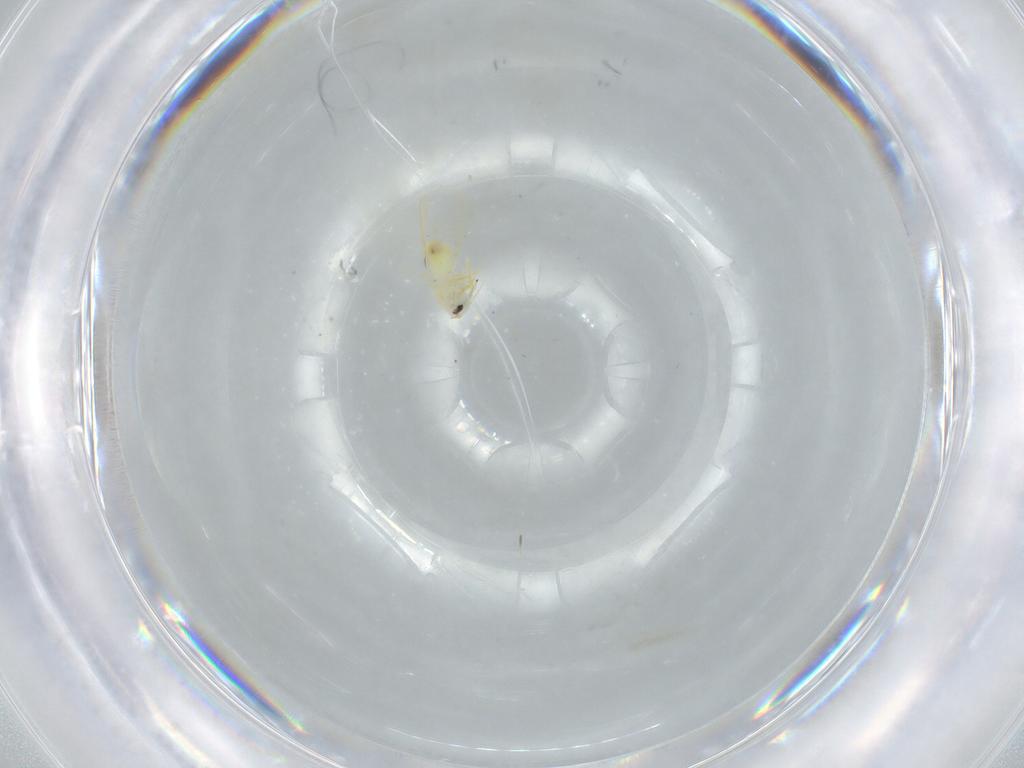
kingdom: Animalia
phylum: Arthropoda
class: Insecta
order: Hemiptera
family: Aleyrodidae
